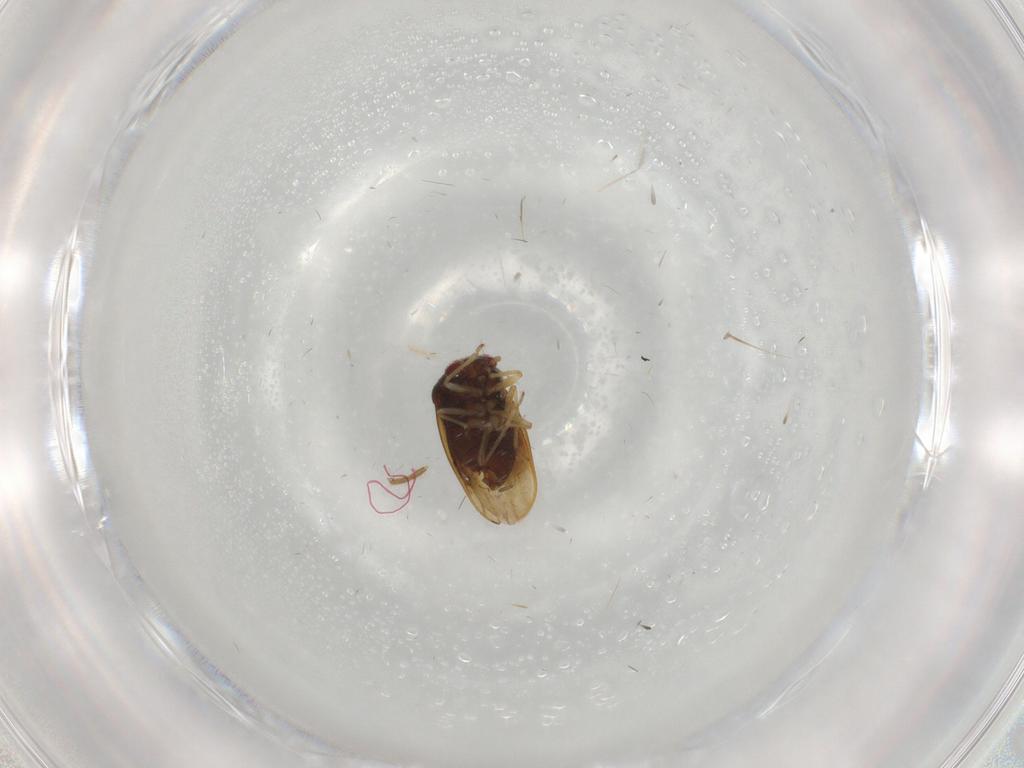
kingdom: Animalia
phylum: Arthropoda
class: Insecta
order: Hemiptera
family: Schizopteridae
